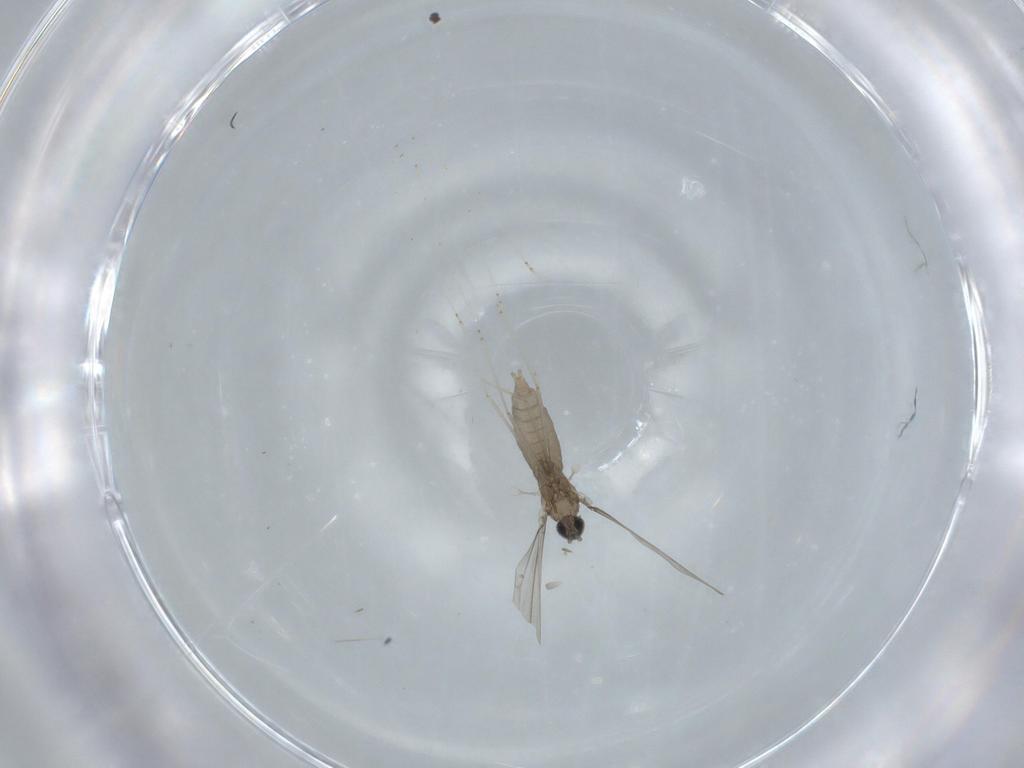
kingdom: Animalia
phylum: Arthropoda
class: Insecta
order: Diptera
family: Cecidomyiidae
